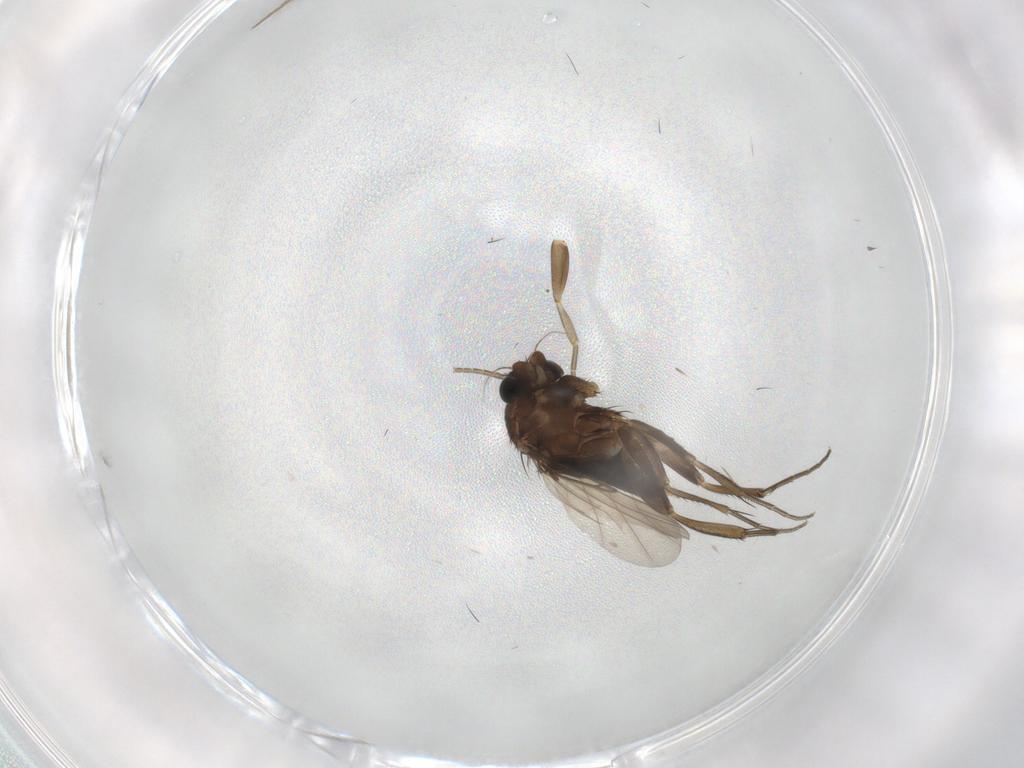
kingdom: Animalia
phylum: Arthropoda
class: Insecta
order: Diptera
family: Phoridae
